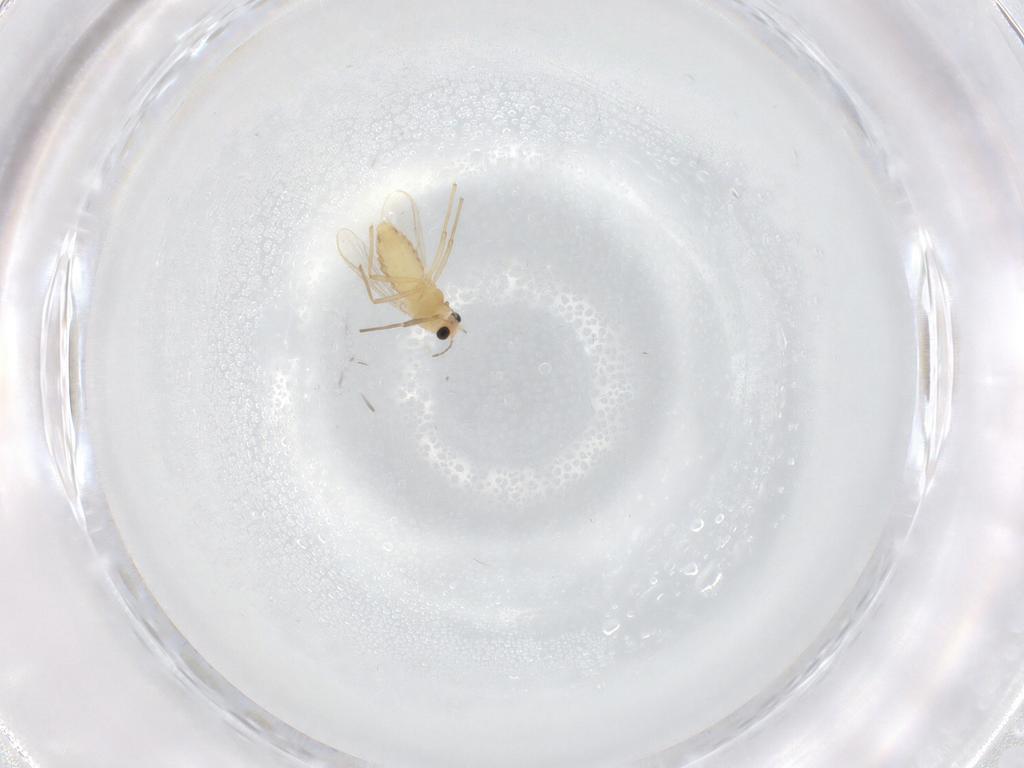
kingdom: Animalia
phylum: Arthropoda
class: Insecta
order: Diptera
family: Chironomidae
